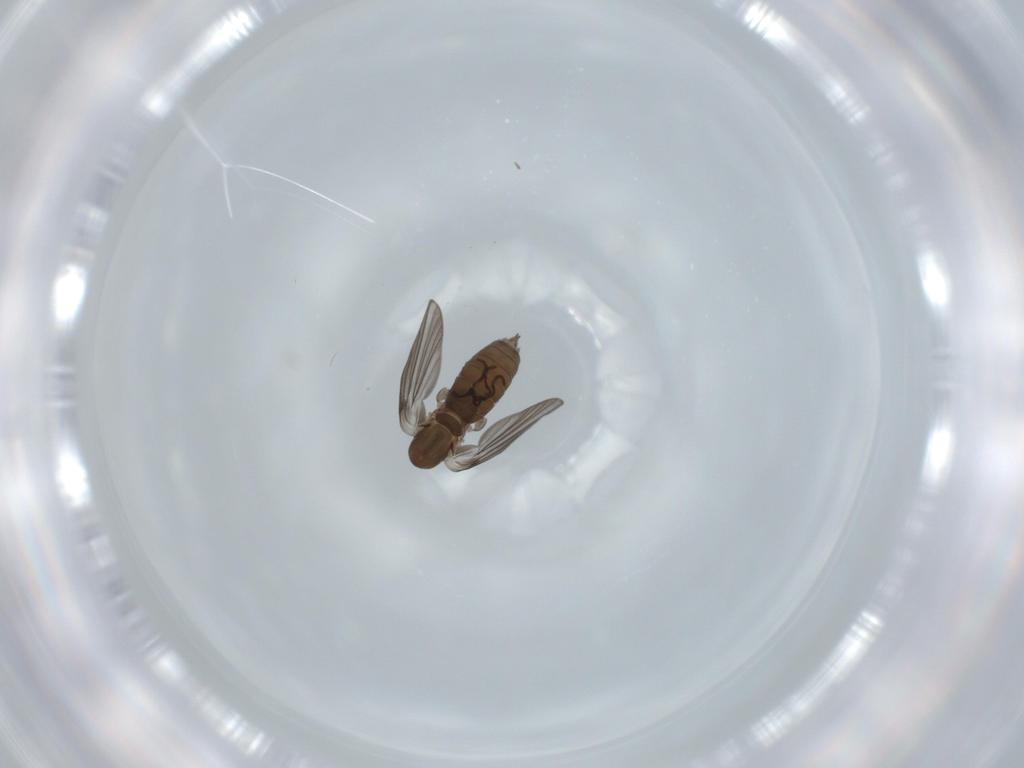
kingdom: Animalia
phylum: Arthropoda
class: Insecta
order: Diptera
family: Psychodidae
